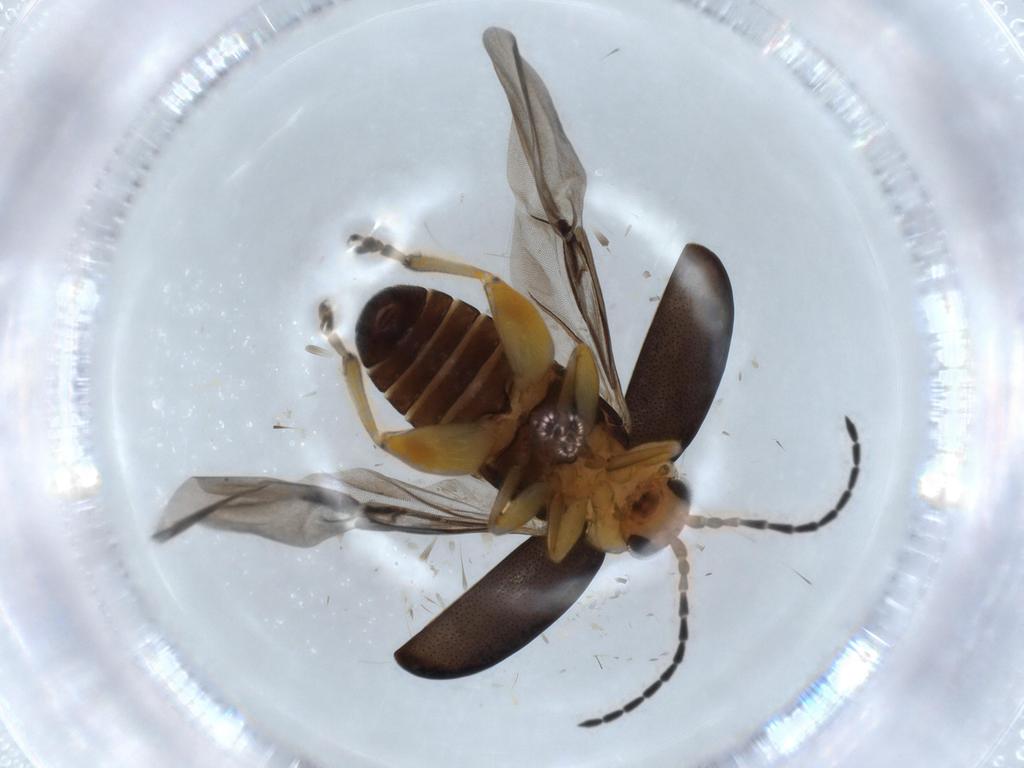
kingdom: Animalia
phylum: Arthropoda
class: Insecta
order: Coleoptera
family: Chrysomelidae
